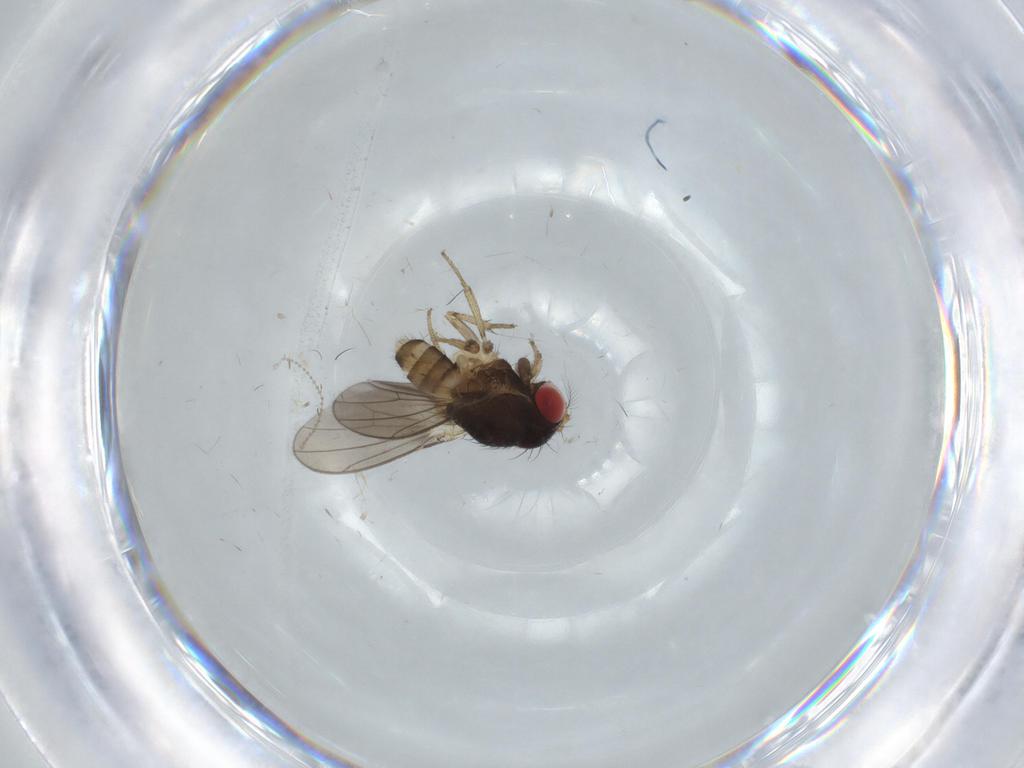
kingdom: Animalia
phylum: Arthropoda
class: Insecta
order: Diptera
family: Drosophilidae
